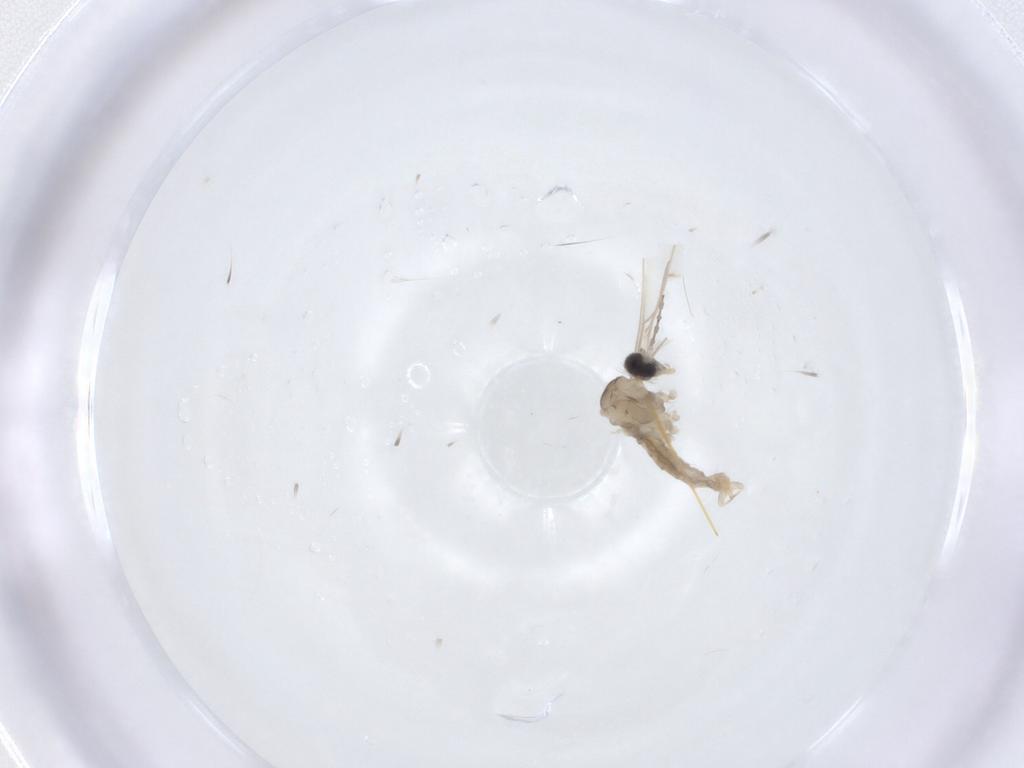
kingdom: Animalia
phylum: Arthropoda
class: Insecta
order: Diptera
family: Cecidomyiidae
